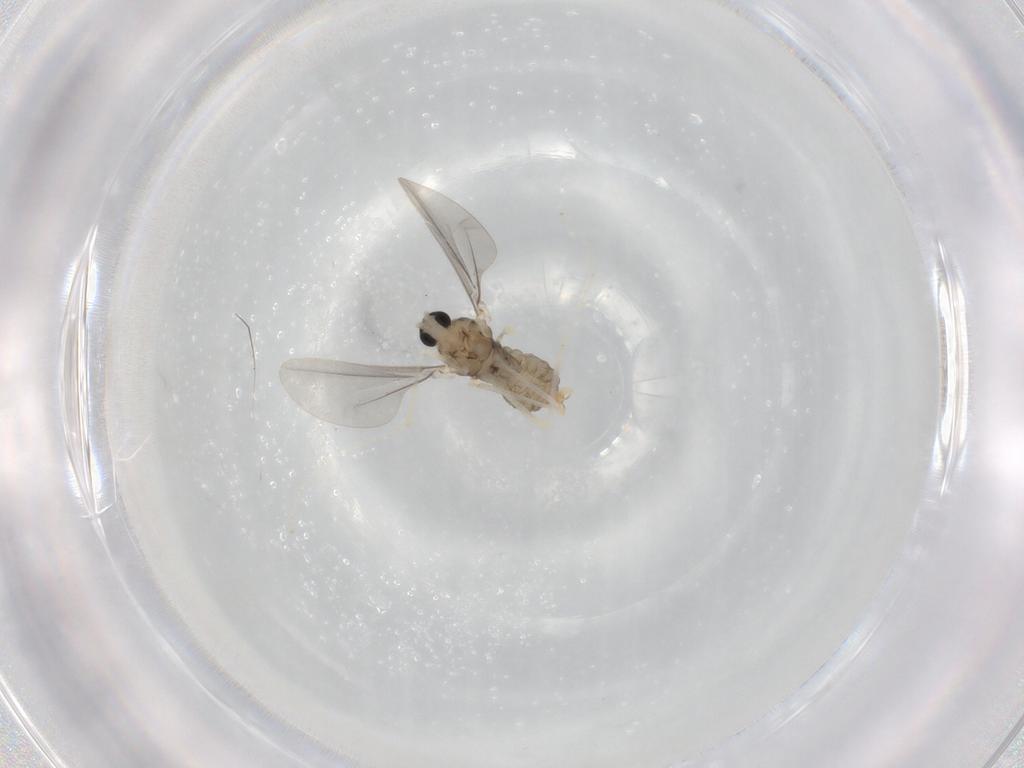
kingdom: Animalia
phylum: Arthropoda
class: Insecta
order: Diptera
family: Cecidomyiidae
